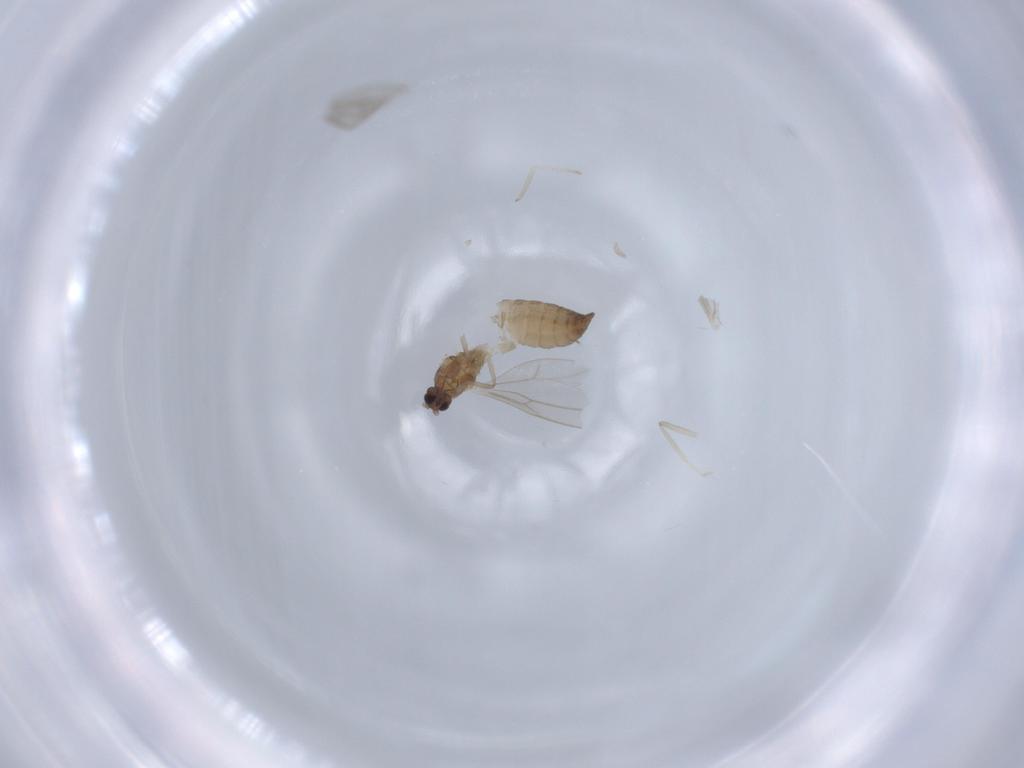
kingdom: Animalia
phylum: Arthropoda
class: Insecta
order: Diptera
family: Cecidomyiidae
